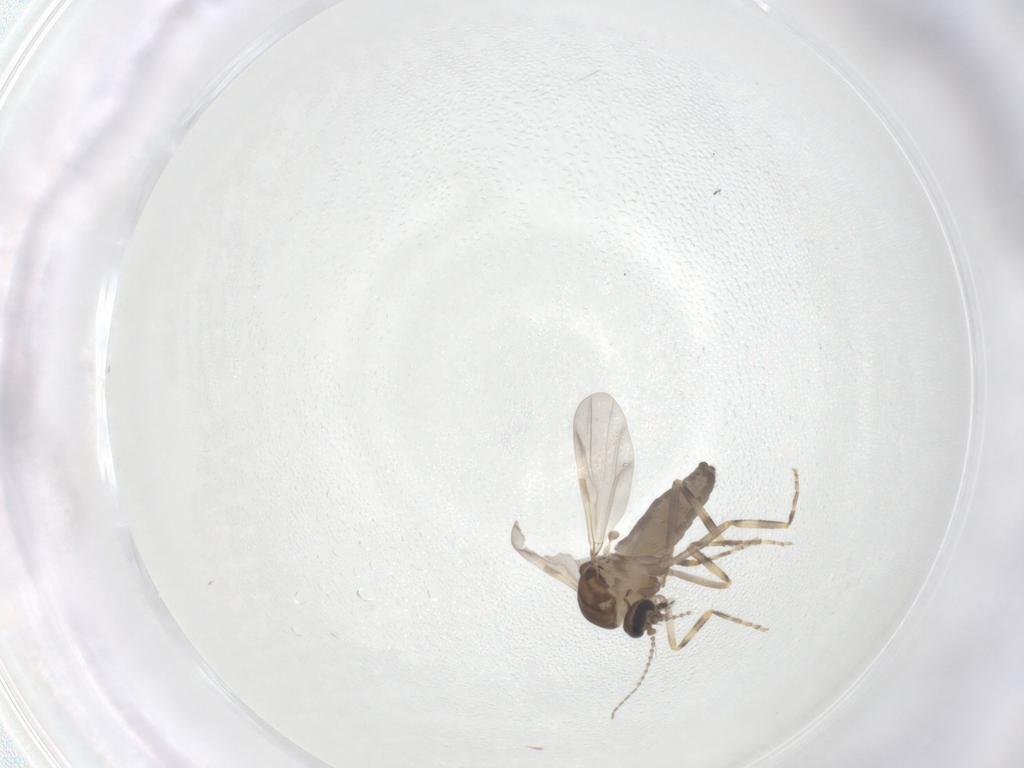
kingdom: Animalia
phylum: Arthropoda
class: Insecta
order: Diptera
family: Ceratopogonidae
